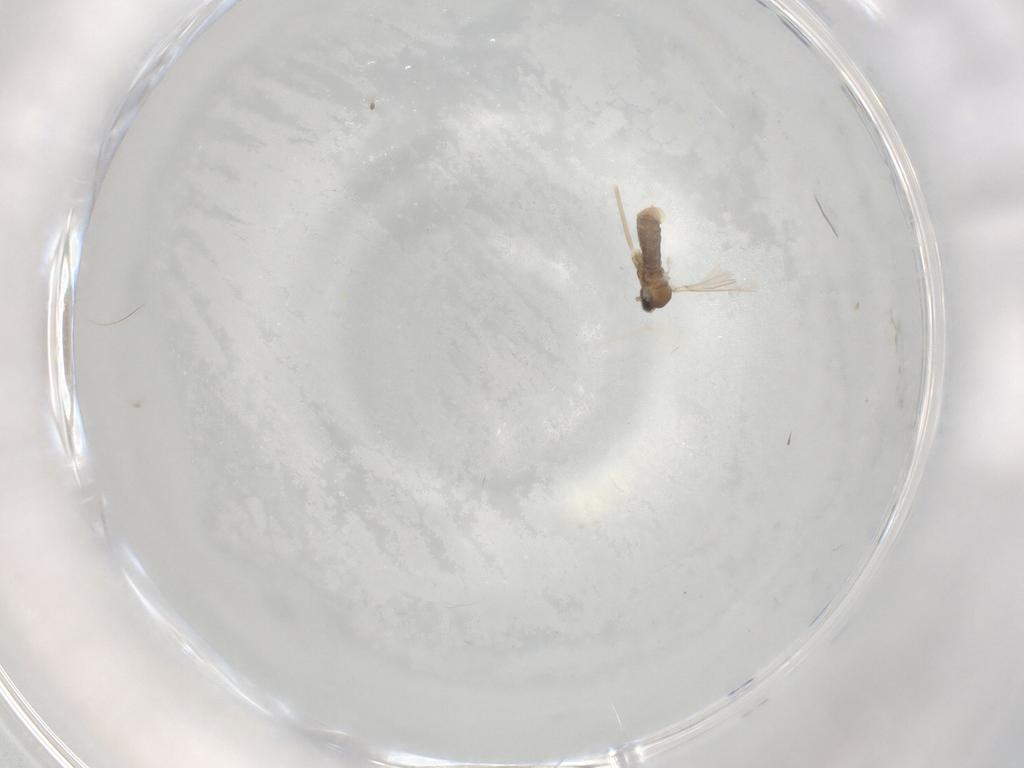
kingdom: Animalia
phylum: Arthropoda
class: Insecta
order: Diptera
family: Cecidomyiidae
